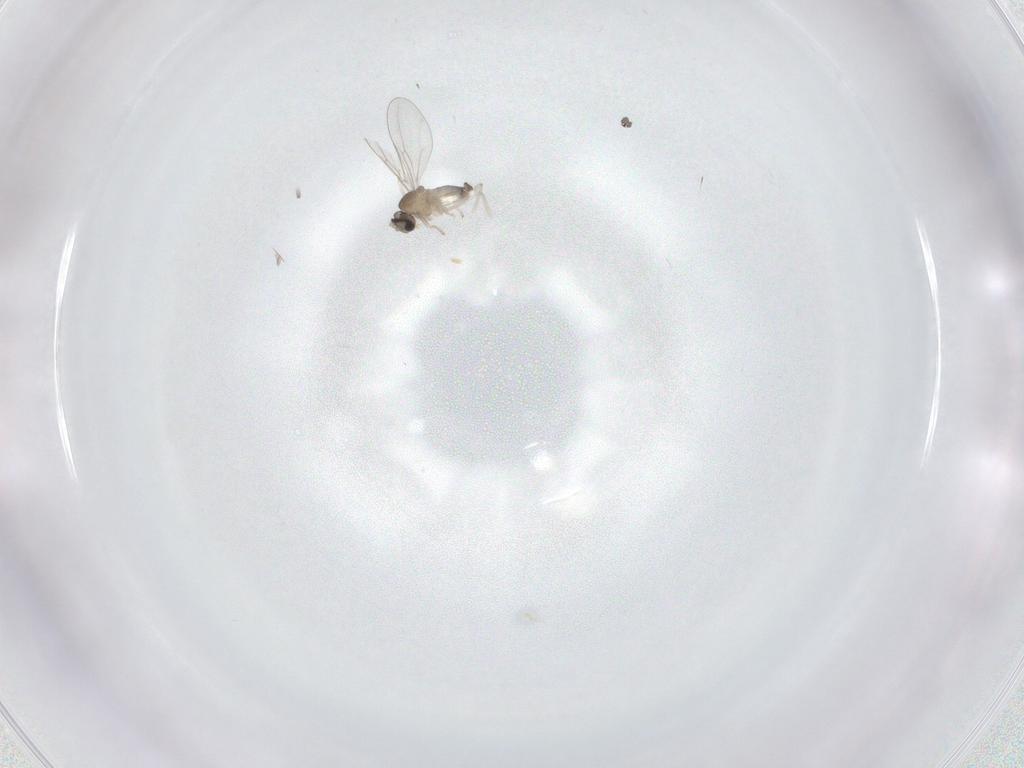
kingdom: Animalia
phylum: Arthropoda
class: Insecta
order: Diptera
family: Cecidomyiidae
